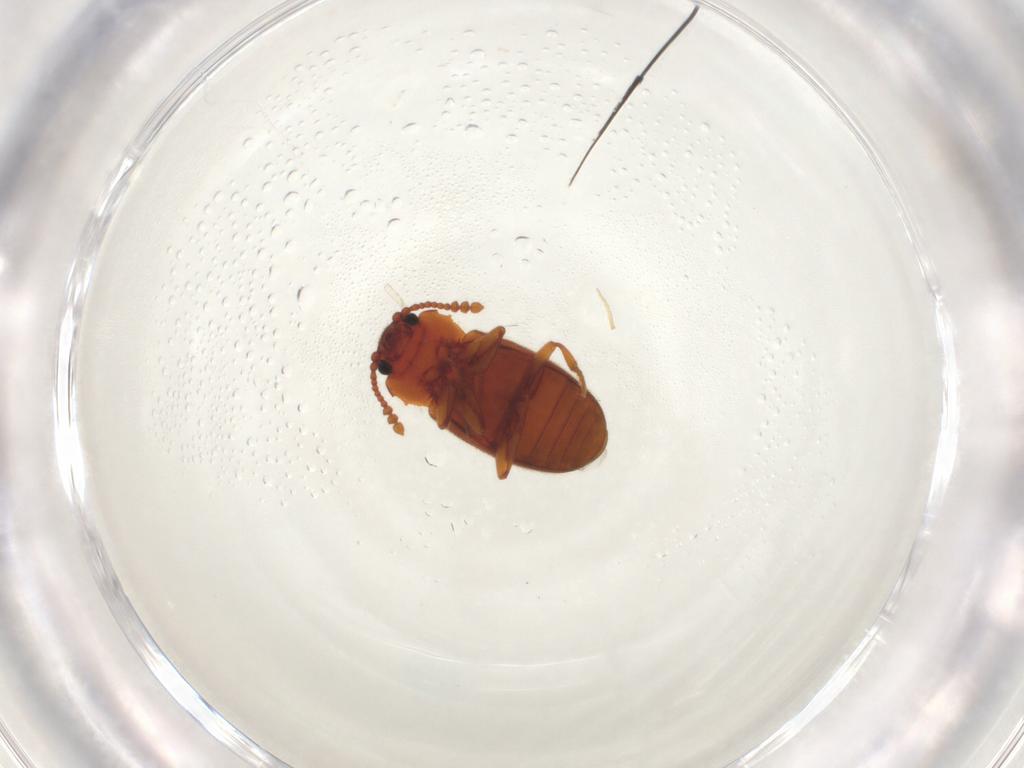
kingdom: Animalia
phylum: Arthropoda
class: Insecta
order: Coleoptera
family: Cryptophagidae
